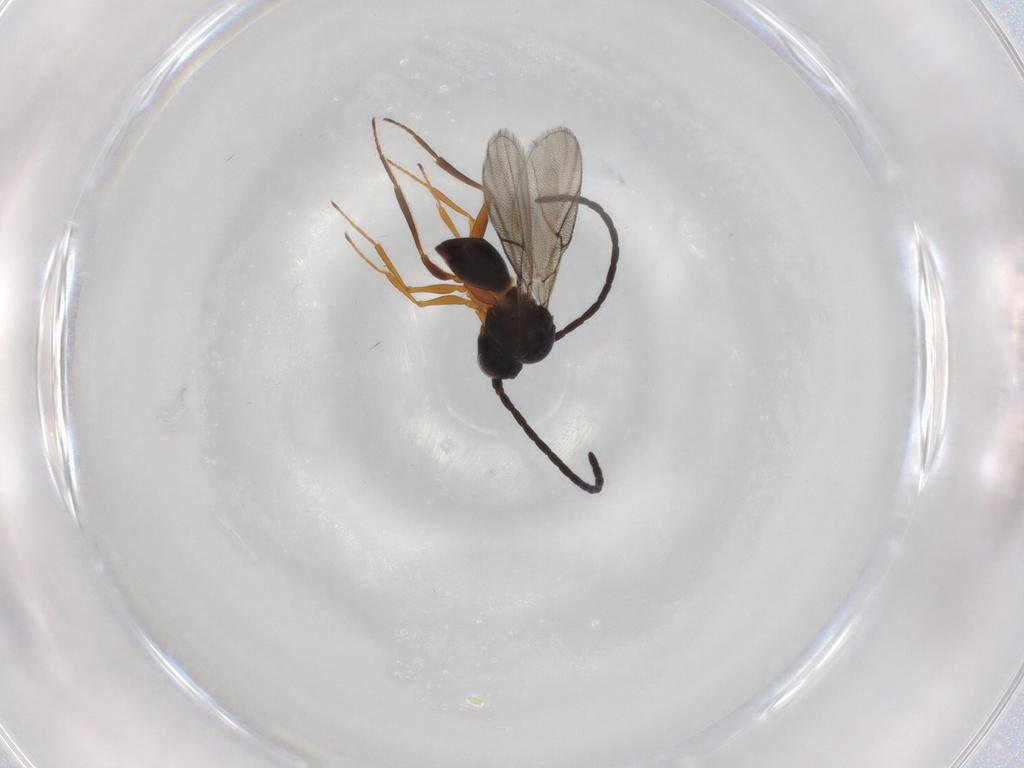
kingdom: Animalia
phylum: Arthropoda
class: Insecta
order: Hymenoptera
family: Figitidae
